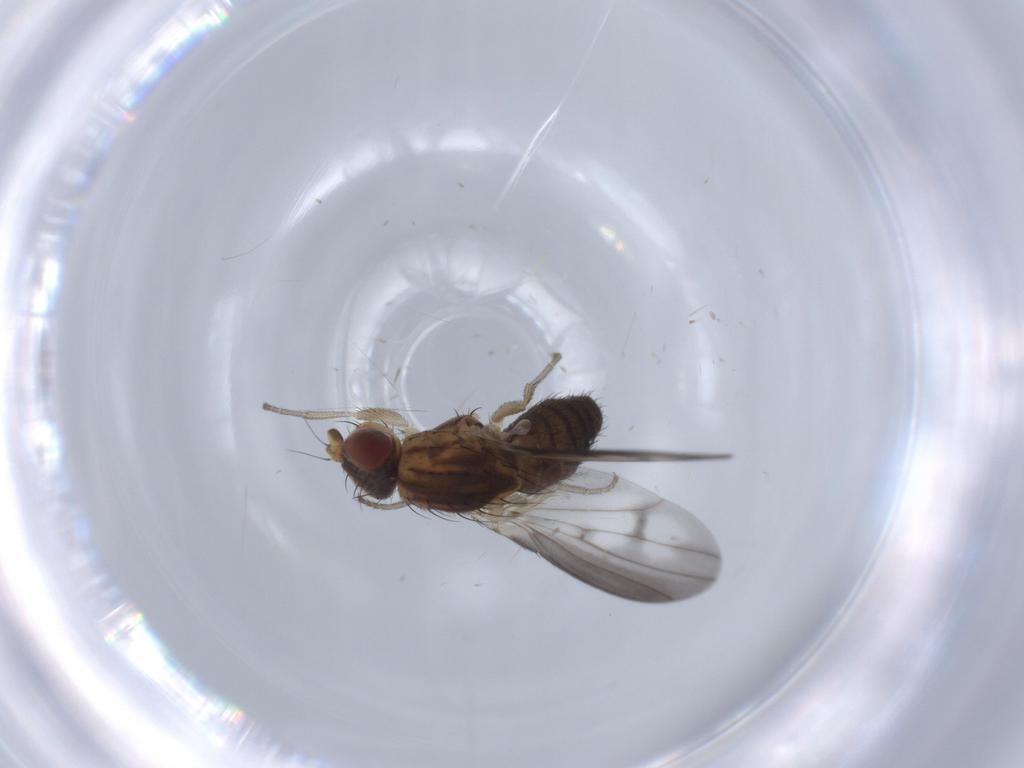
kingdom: Animalia
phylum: Arthropoda
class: Insecta
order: Diptera
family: Heleomyzidae
